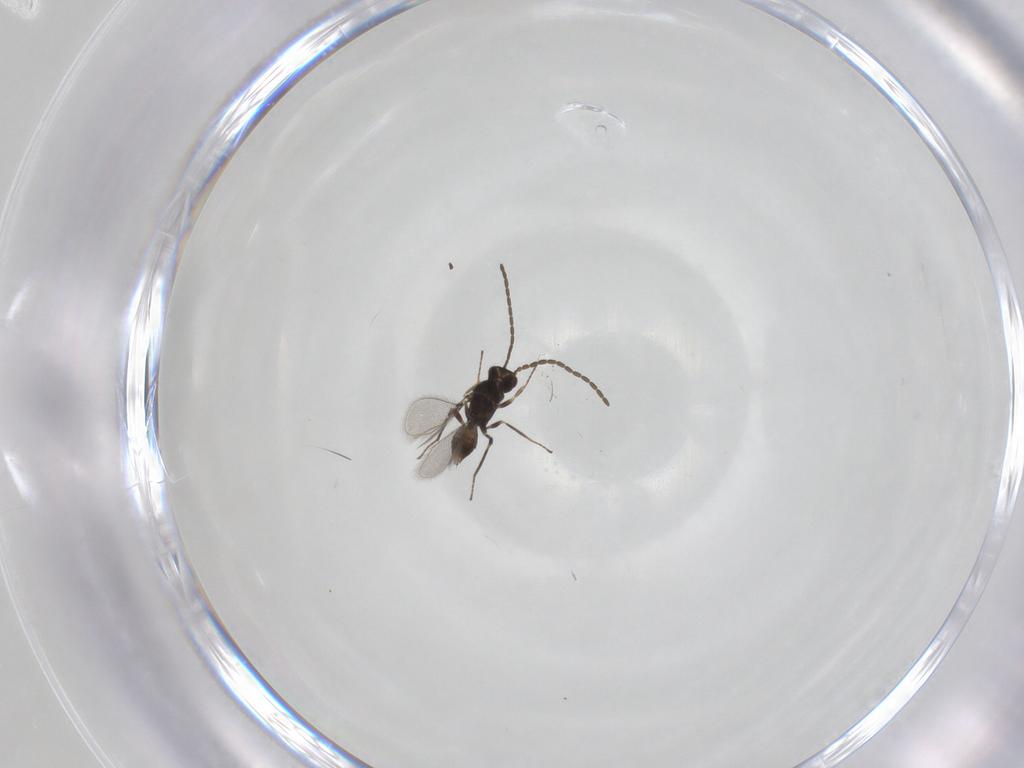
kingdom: Animalia
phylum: Arthropoda
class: Insecta
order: Hymenoptera
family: Mymaridae
